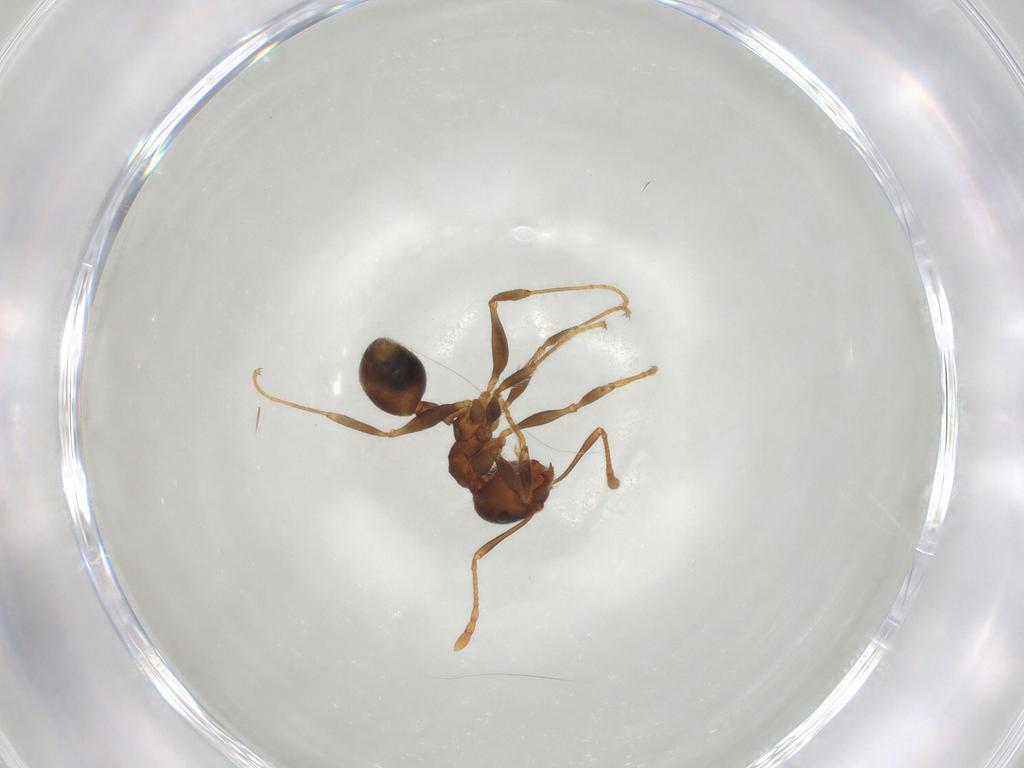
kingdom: Animalia
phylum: Arthropoda
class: Insecta
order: Hymenoptera
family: Formicidae
